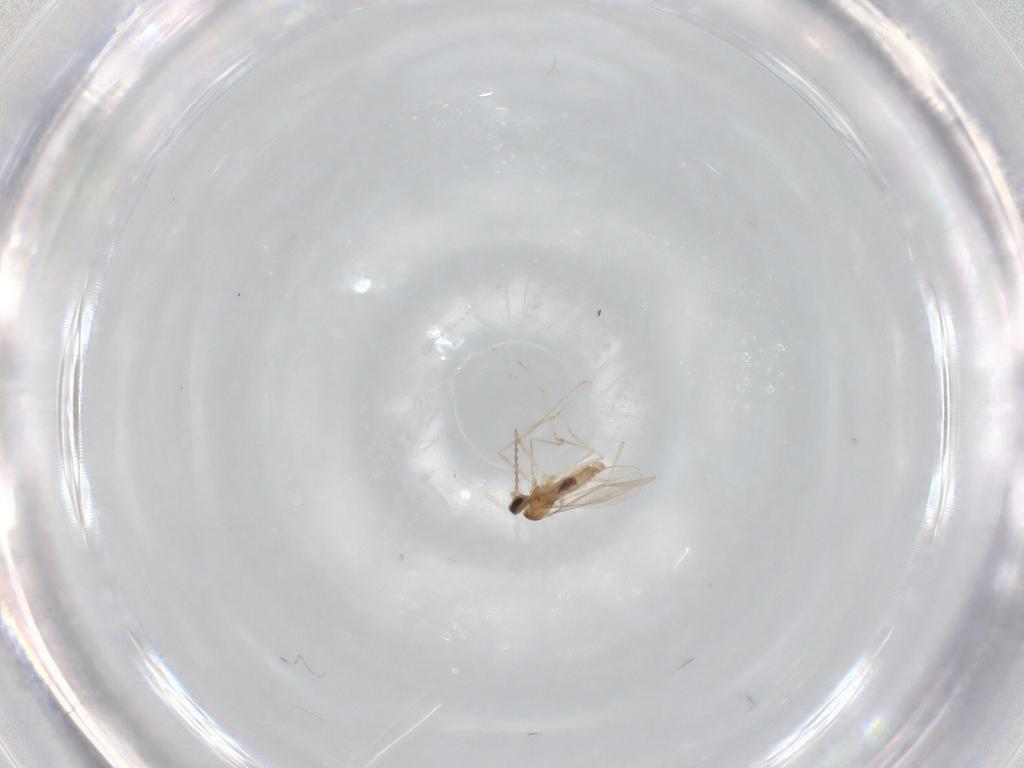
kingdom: Animalia
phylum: Arthropoda
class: Insecta
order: Diptera
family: Cecidomyiidae
